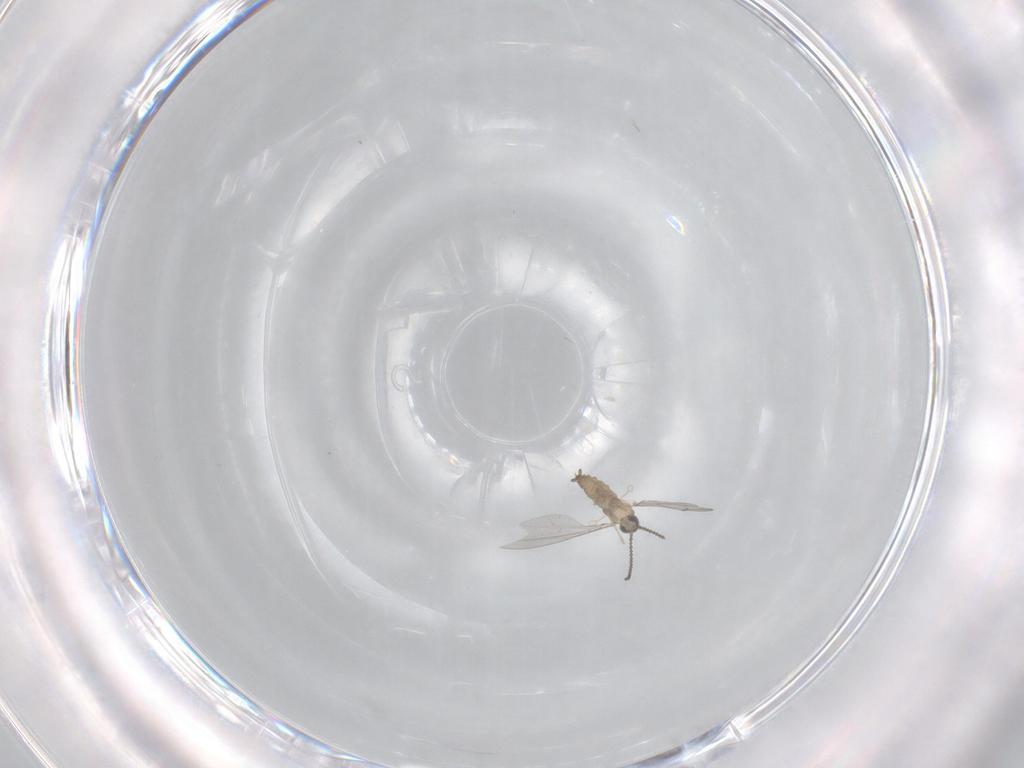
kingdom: Animalia
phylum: Arthropoda
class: Insecta
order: Diptera
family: Cecidomyiidae
